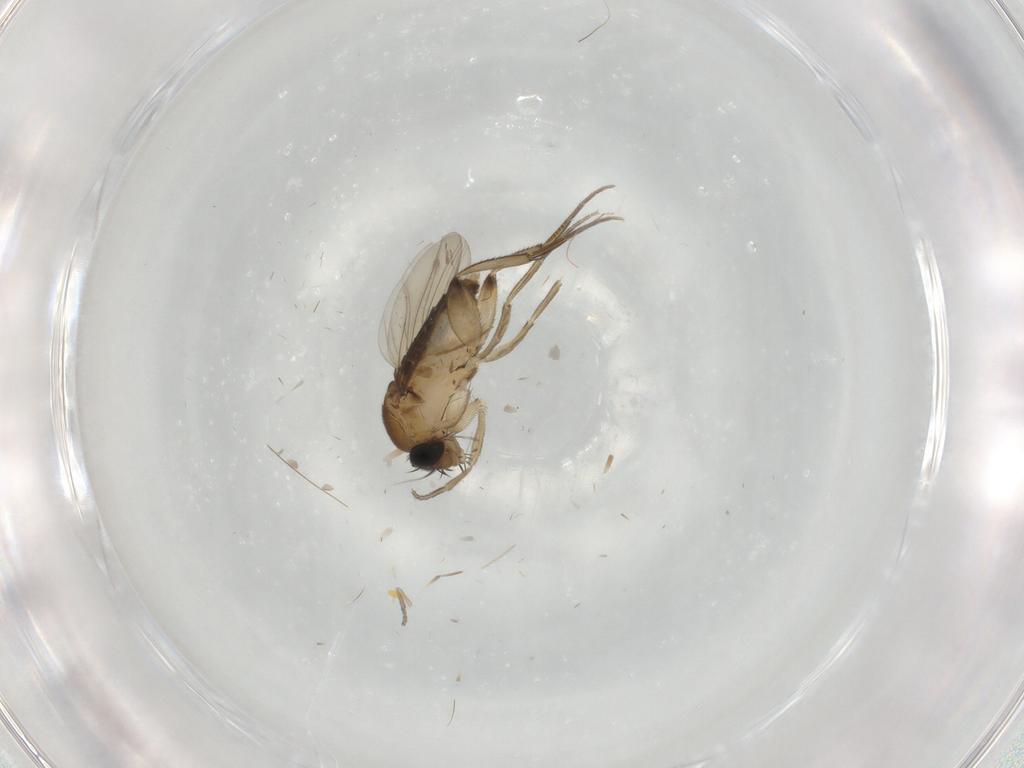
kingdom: Animalia
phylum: Arthropoda
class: Insecta
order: Diptera
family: Phoridae
